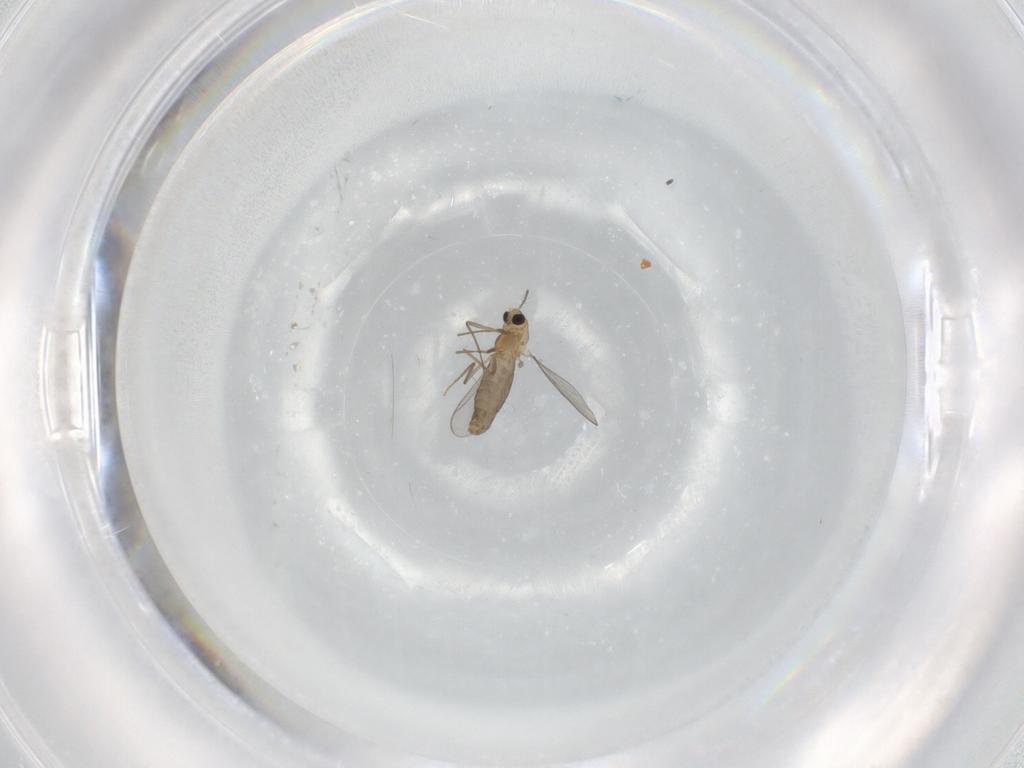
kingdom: Animalia
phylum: Arthropoda
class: Insecta
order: Diptera
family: Chironomidae
